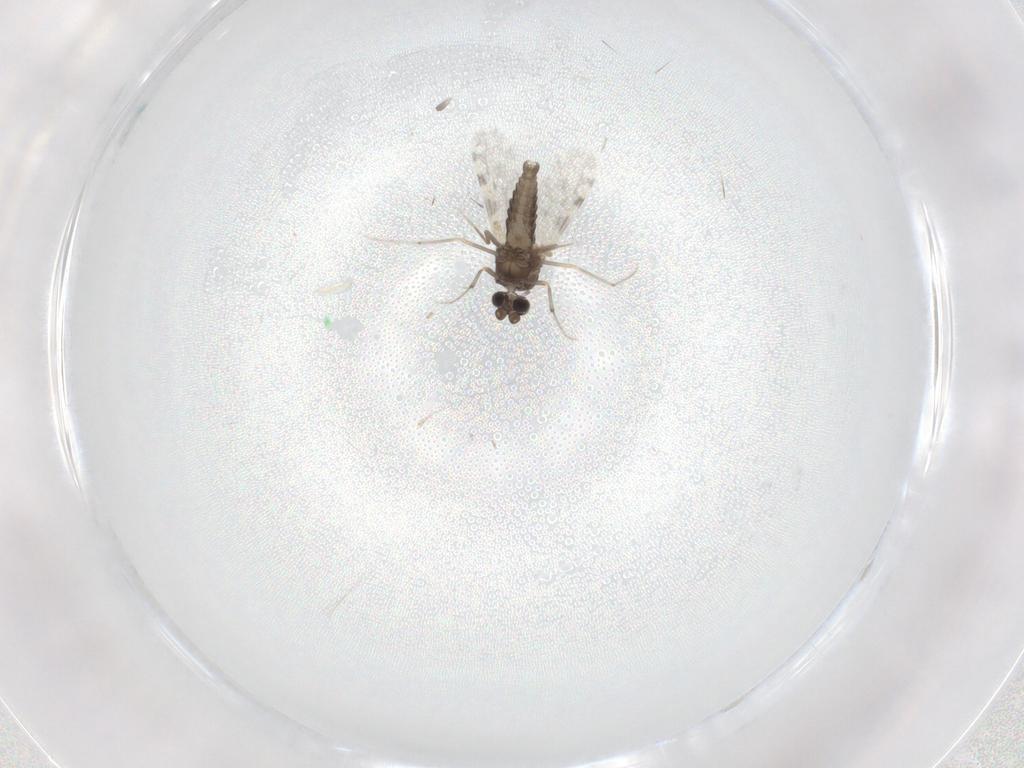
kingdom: Animalia
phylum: Arthropoda
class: Insecta
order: Diptera
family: Ceratopogonidae
